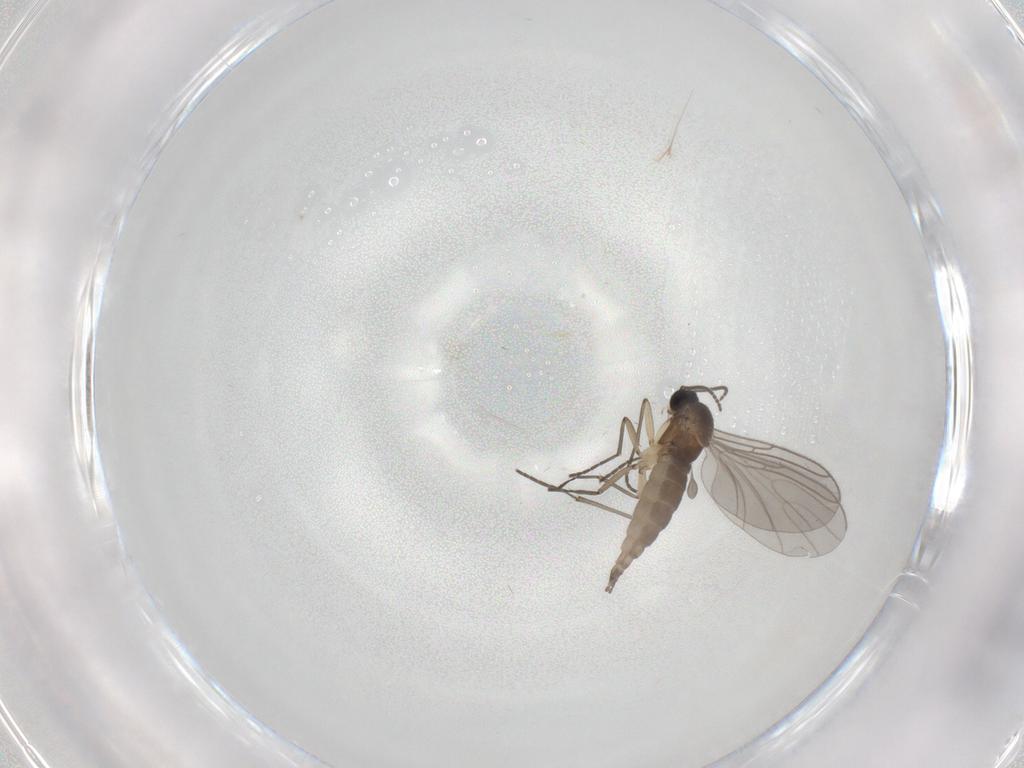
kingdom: Animalia
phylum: Arthropoda
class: Insecta
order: Diptera
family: Sciaridae
